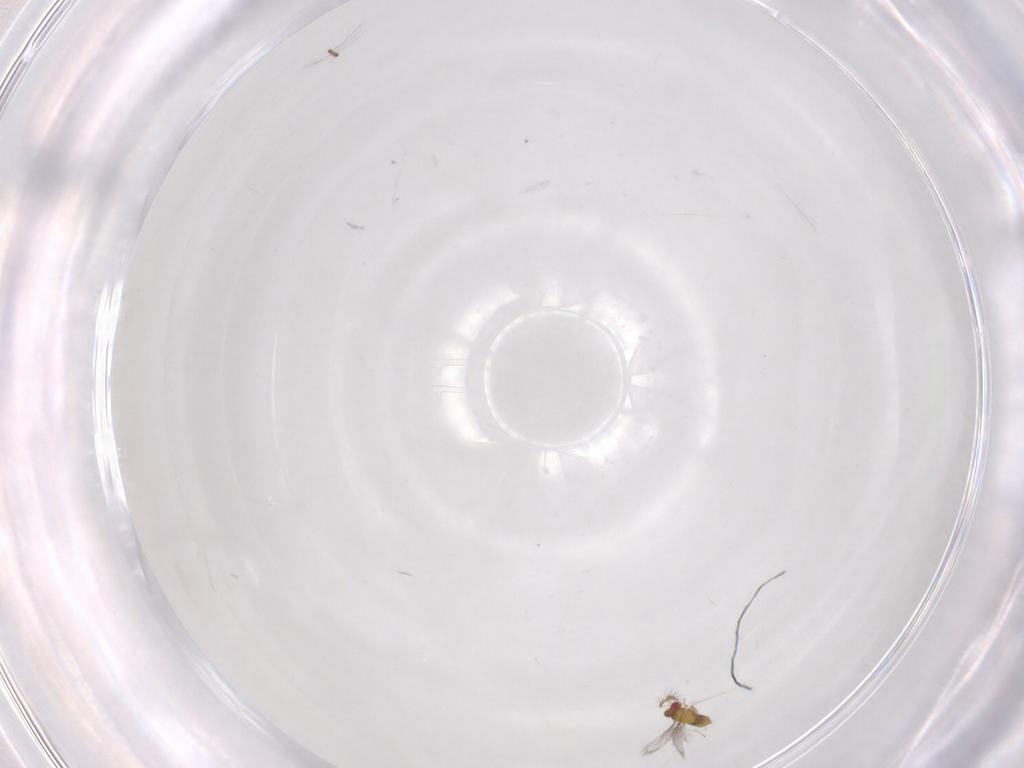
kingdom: Animalia
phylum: Arthropoda
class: Insecta
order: Hymenoptera
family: Trichogrammatidae
